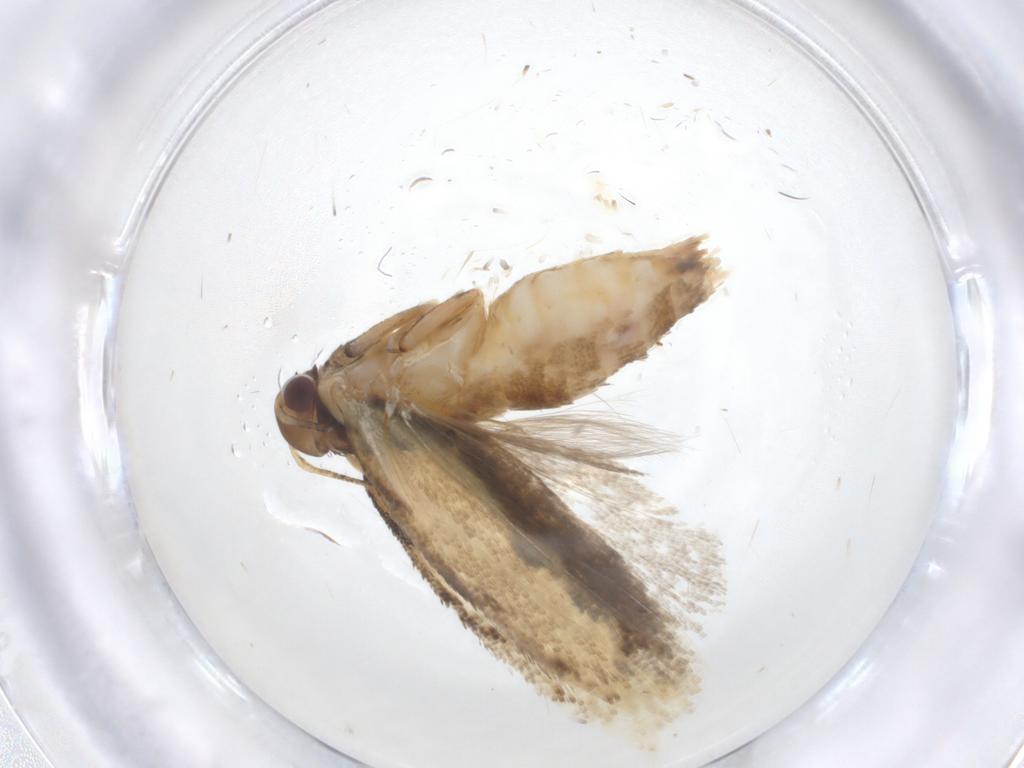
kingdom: Animalia
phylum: Arthropoda
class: Insecta
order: Lepidoptera
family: Gelechiidae
